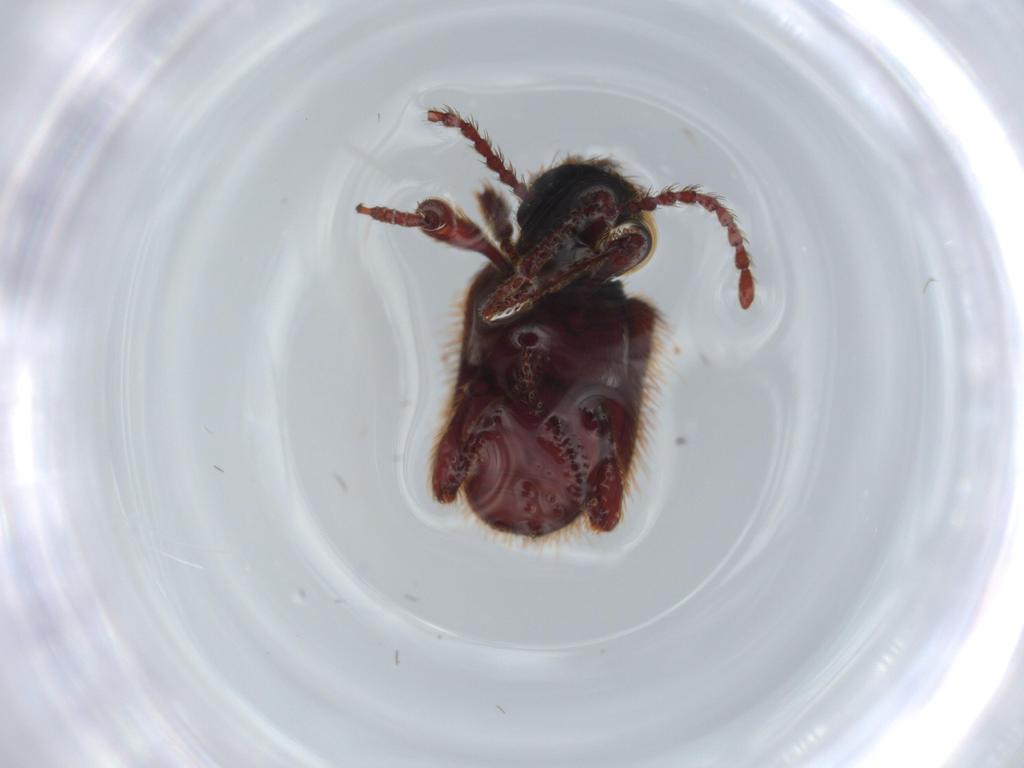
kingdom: Animalia
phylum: Arthropoda
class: Insecta
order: Coleoptera
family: Ptinidae
